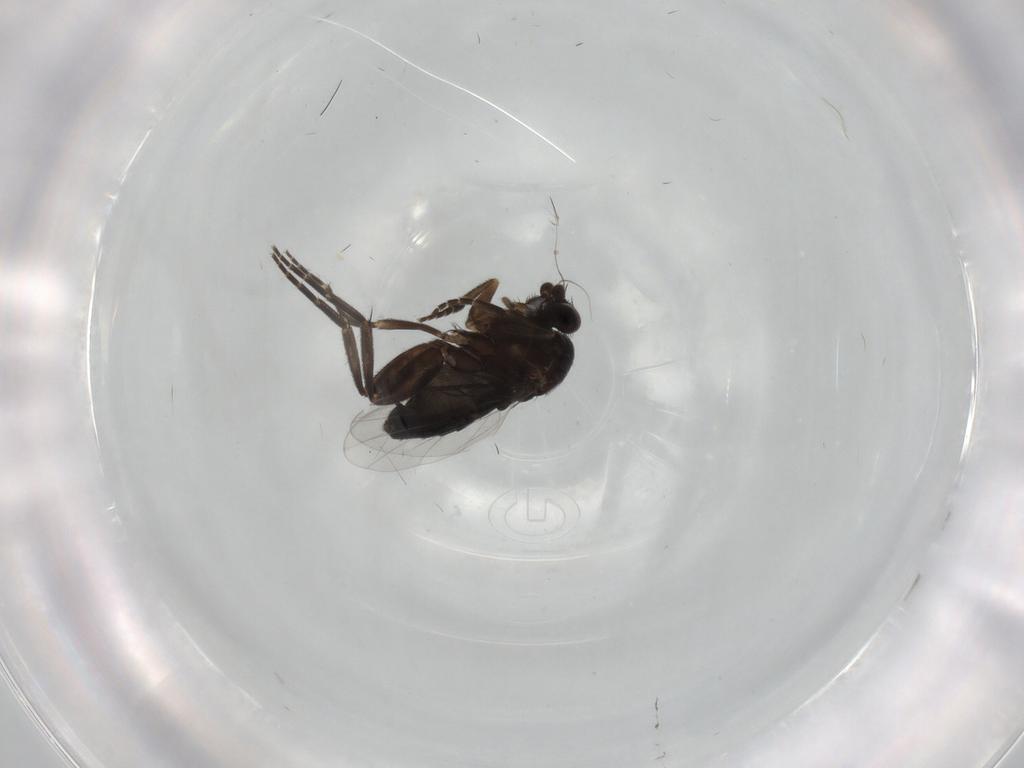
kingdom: Animalia
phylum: Arthropoda
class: Insecta
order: Diptera
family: Phoridae
